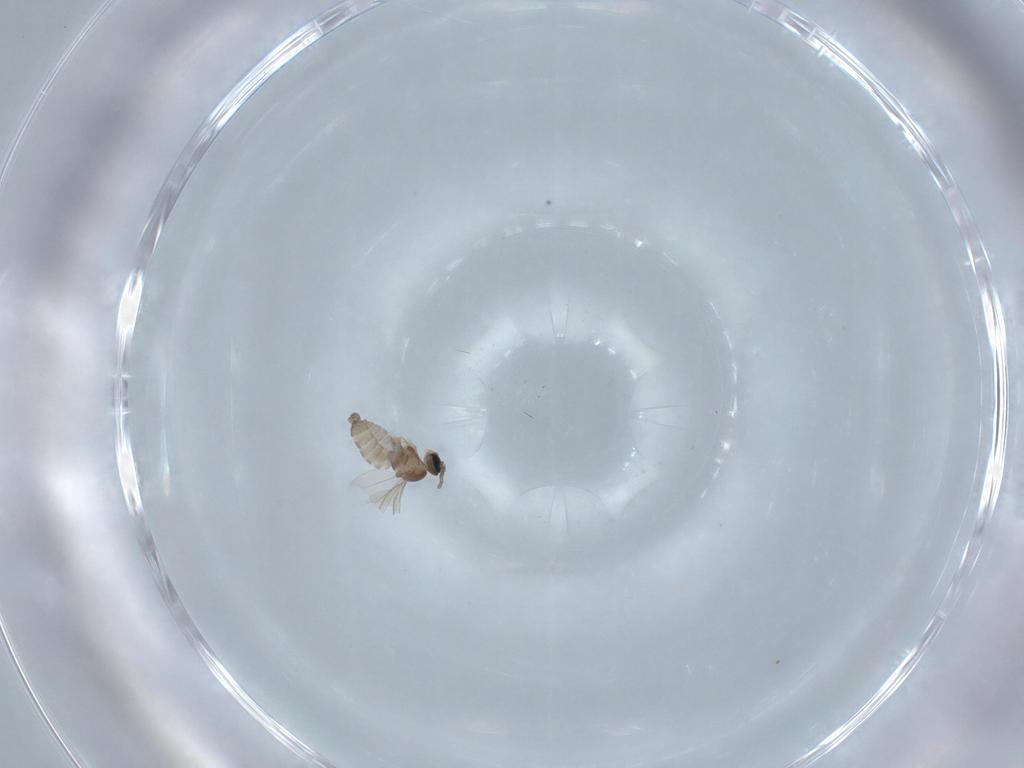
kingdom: Animalia
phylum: Arthropoda
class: Insecta
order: Diptera
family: Cecidomyiidae
